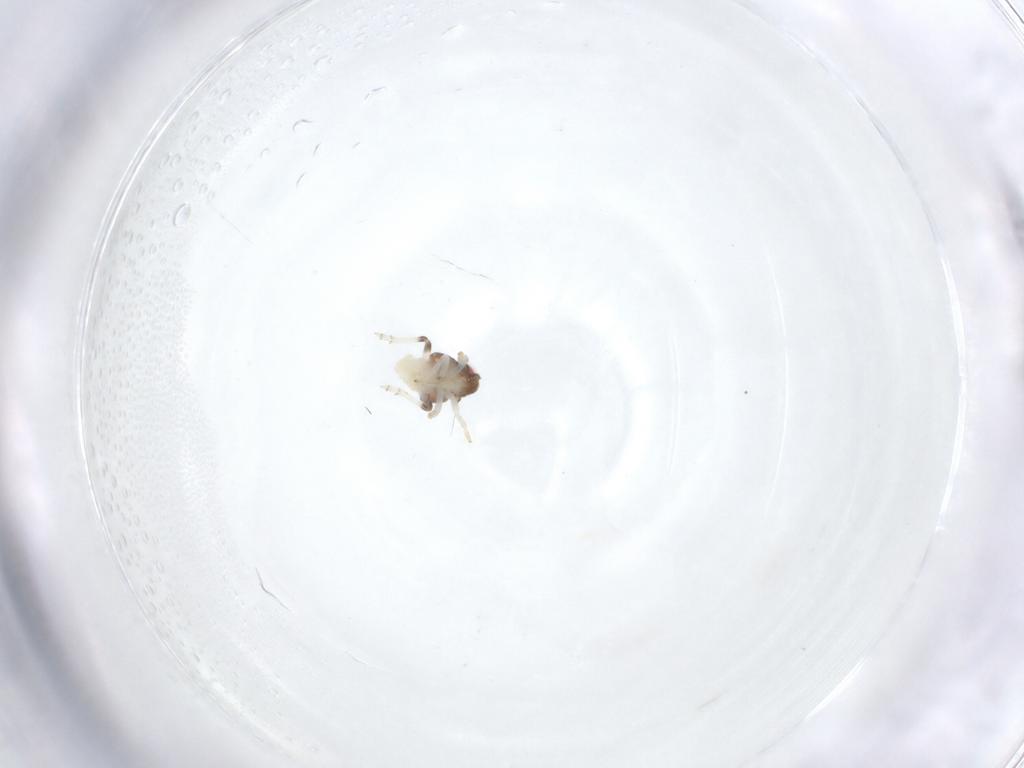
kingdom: Animalia
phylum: Arthropoda
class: Insecta
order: Hemiptera
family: Nogodinidae
